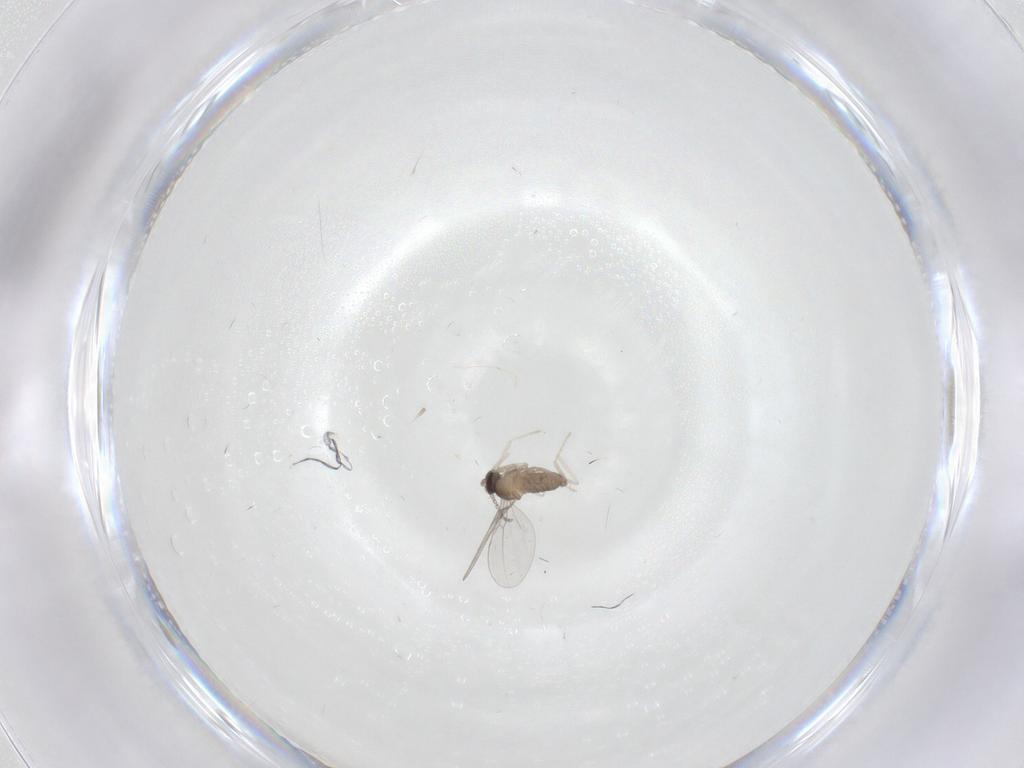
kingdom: Animalia
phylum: Arthropoda
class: Insecta
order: Diptera
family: Cecidomyiidae
